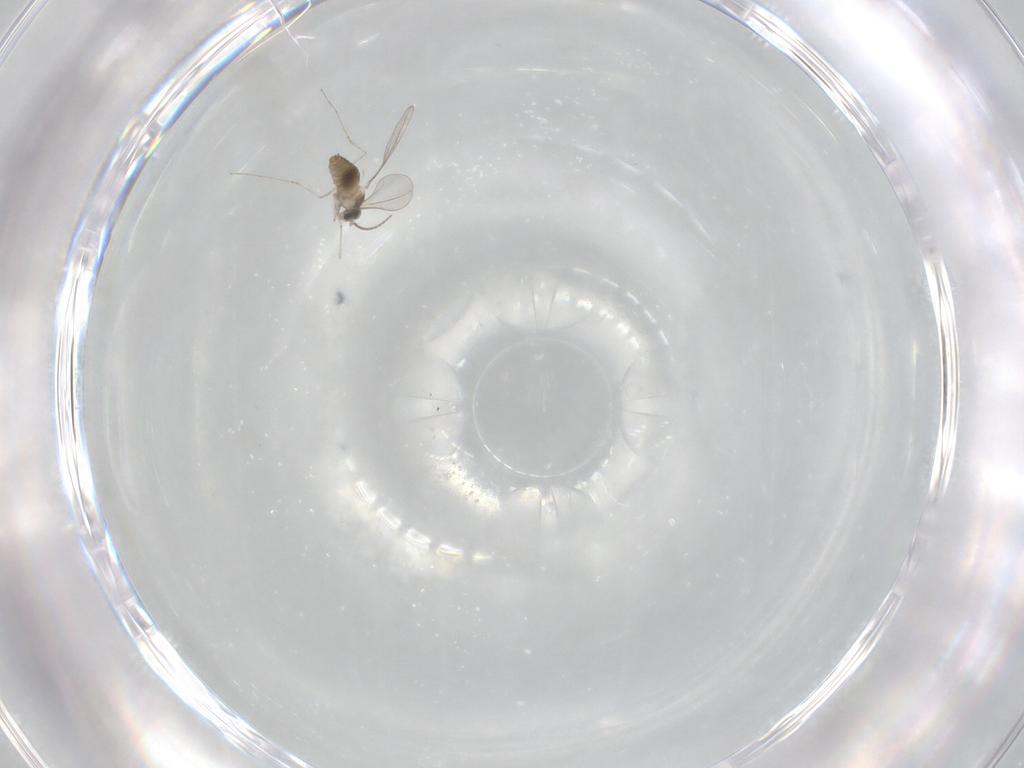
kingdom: Animalia
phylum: Arthropoda
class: Insecta
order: Diptera
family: Cecidomyiidae
